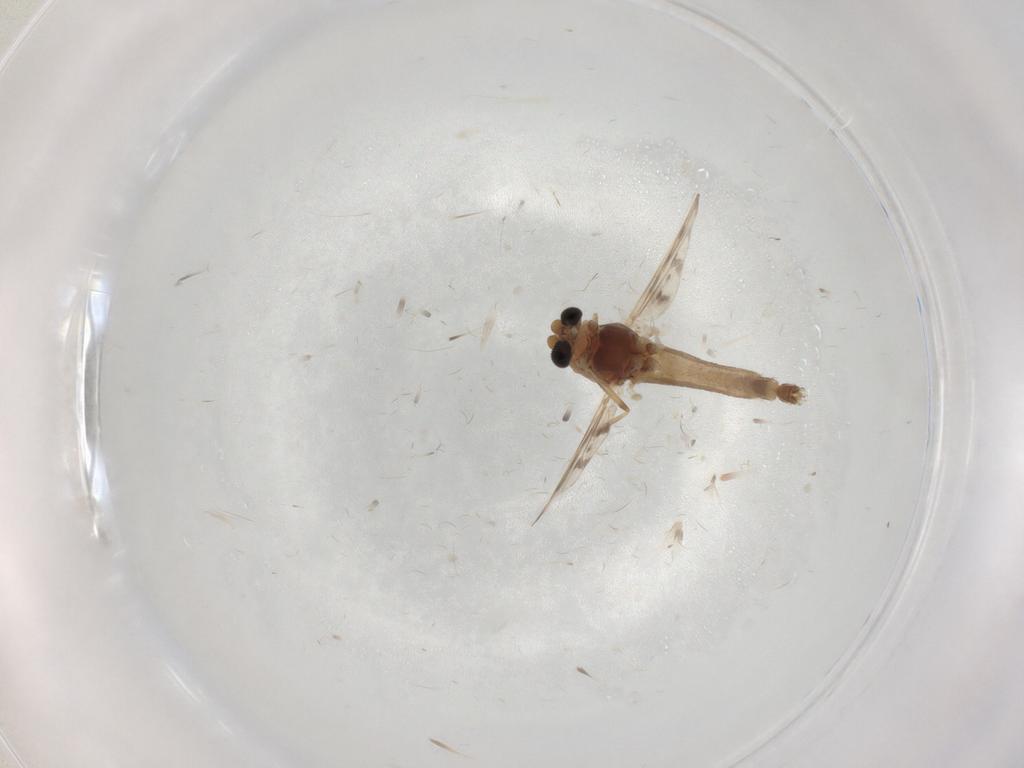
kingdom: Animalia
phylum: Arthropoda
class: Insecta
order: Diptera
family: Chironomidae
